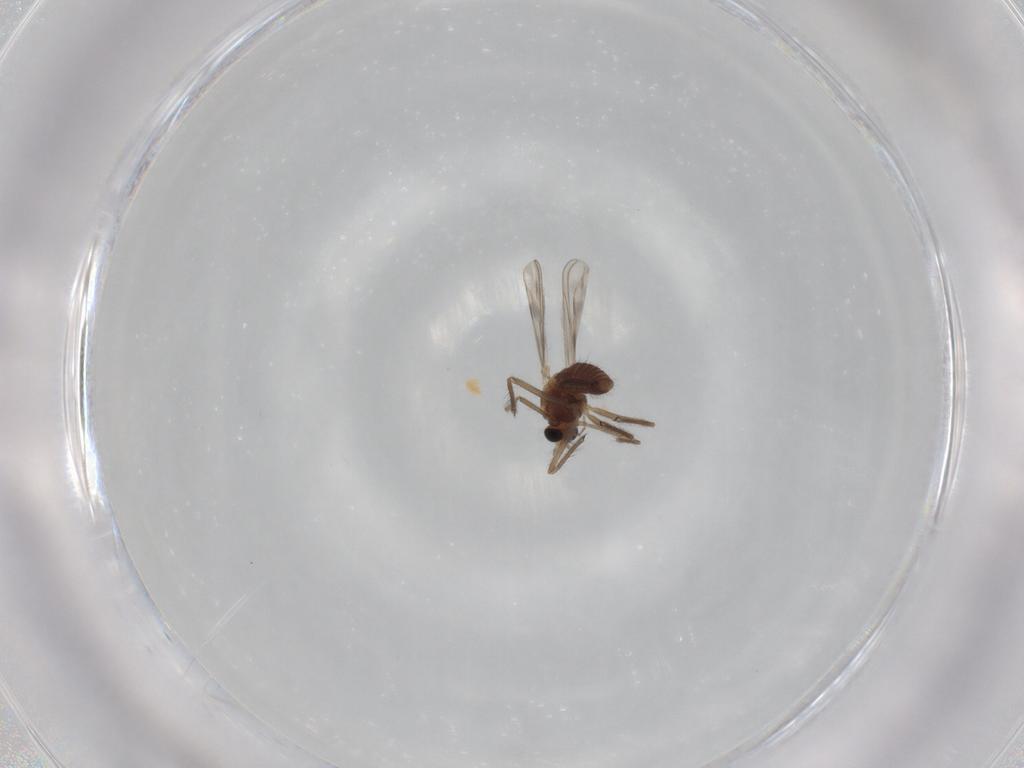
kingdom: Animalia
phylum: Arthropoda
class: Insecta
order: Diptera
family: Chironomidae
